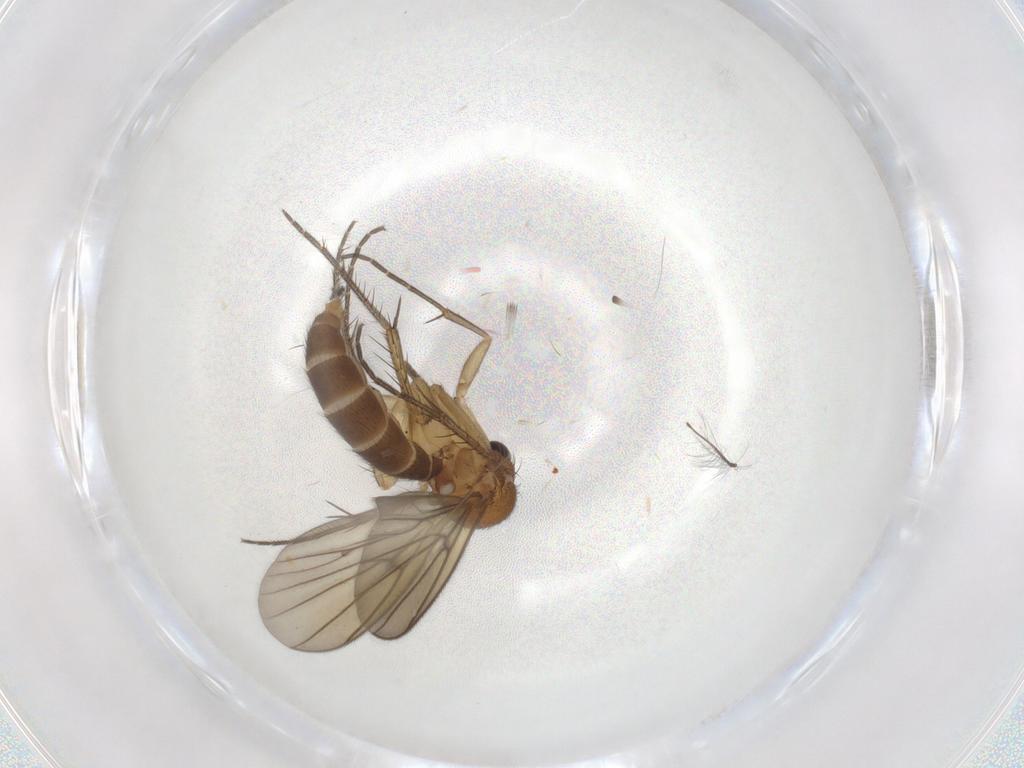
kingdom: Animalia
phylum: Arthropoda
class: Insecta
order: Diptera
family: Chironomidae
